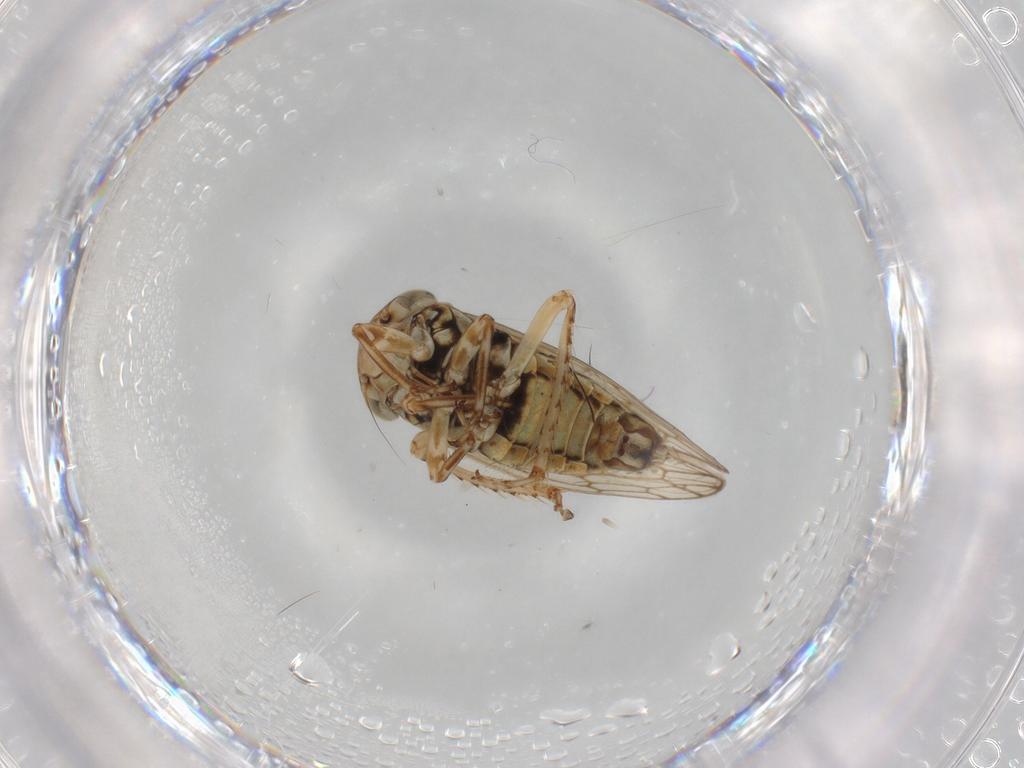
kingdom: Animalia
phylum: Arthropoda
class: Insecta
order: Hemiptera
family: Cicadellidae
